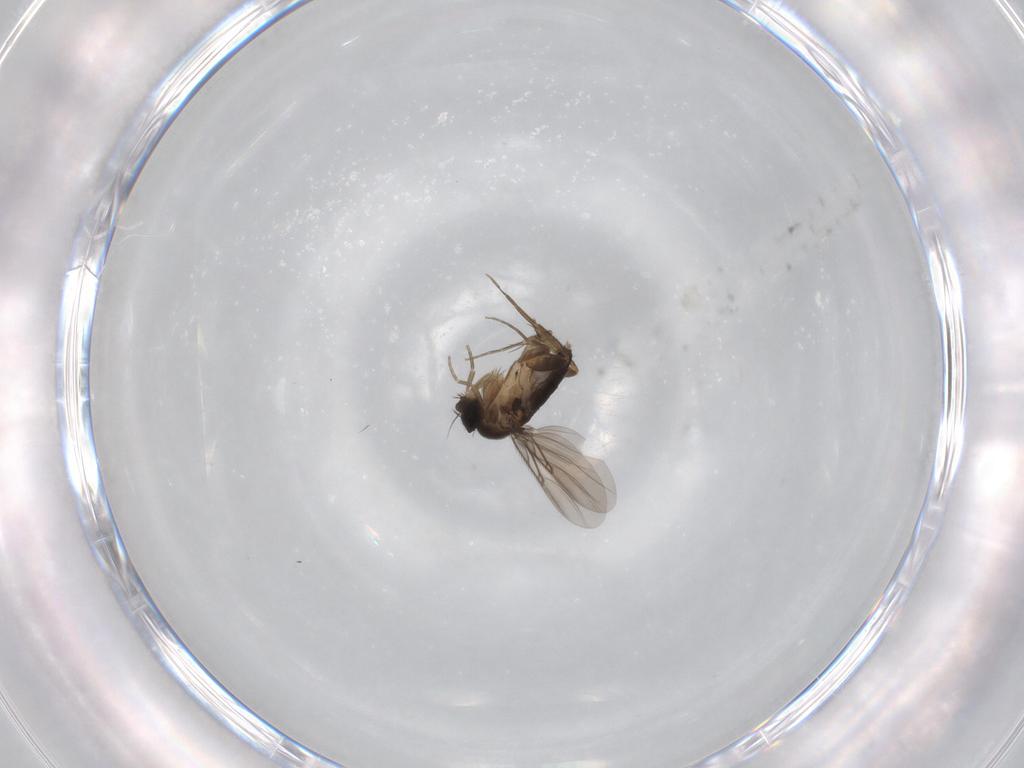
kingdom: Animalia
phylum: Arthropoda
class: Insecta
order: Diptera
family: Phoridae
